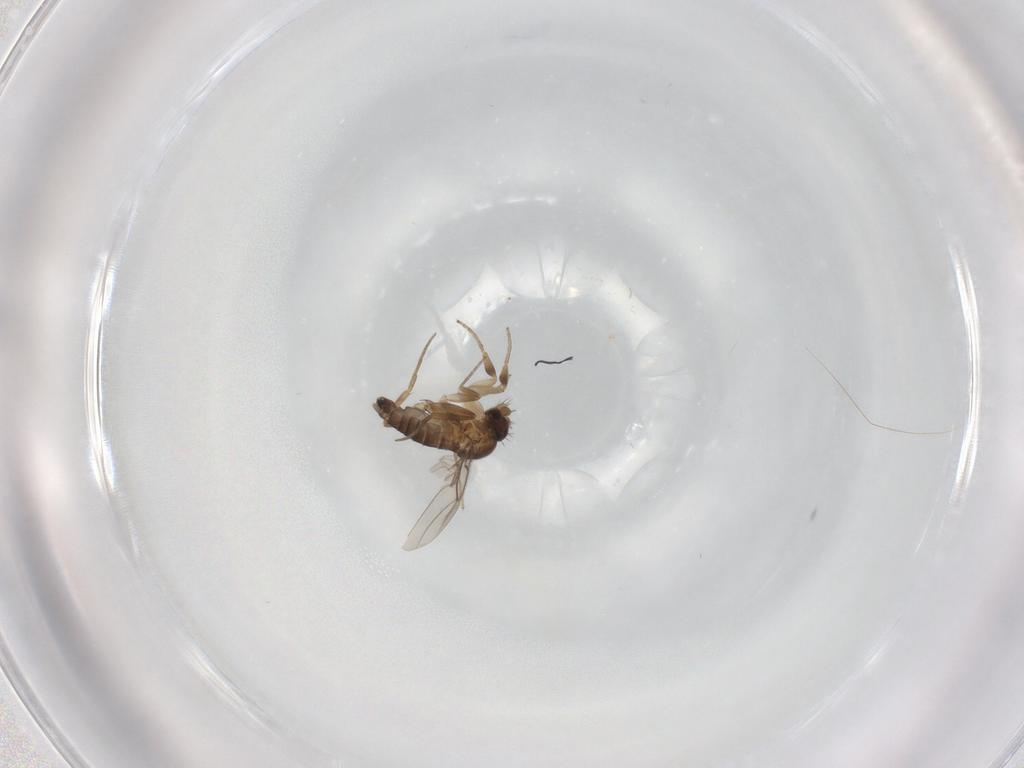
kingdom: Animalia
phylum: Arthropoda
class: Insecta
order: Diptera
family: Phoridae
